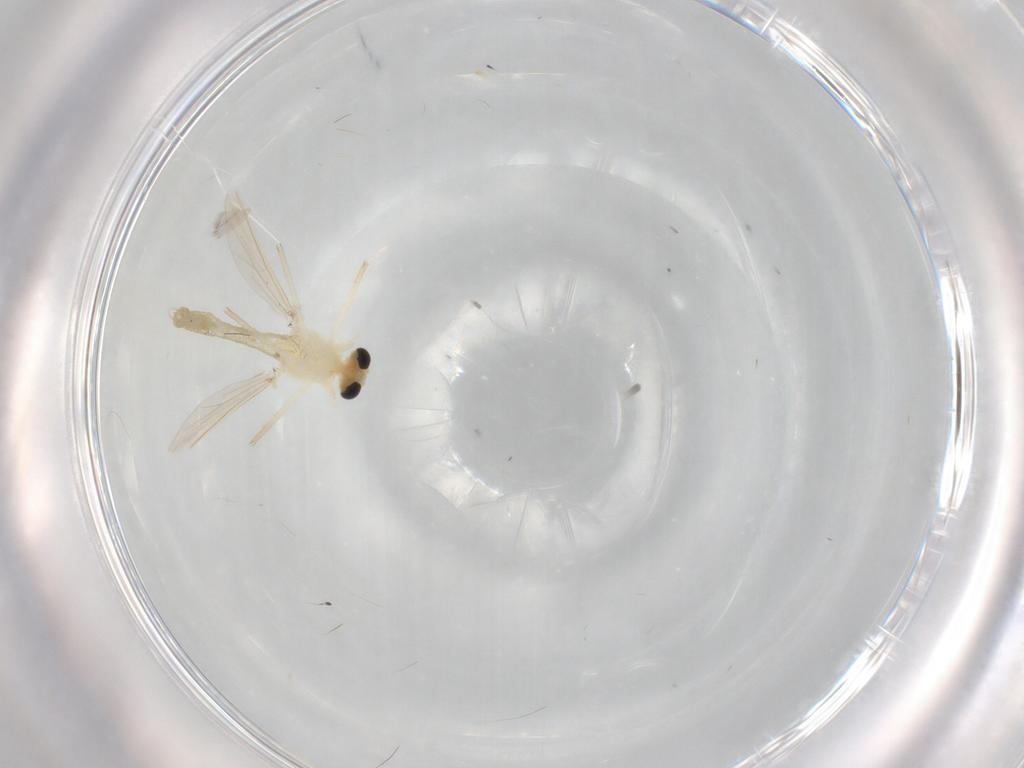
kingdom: Animalia
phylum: Arthropoda
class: Insecta
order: Diptera
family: Chironomidae
